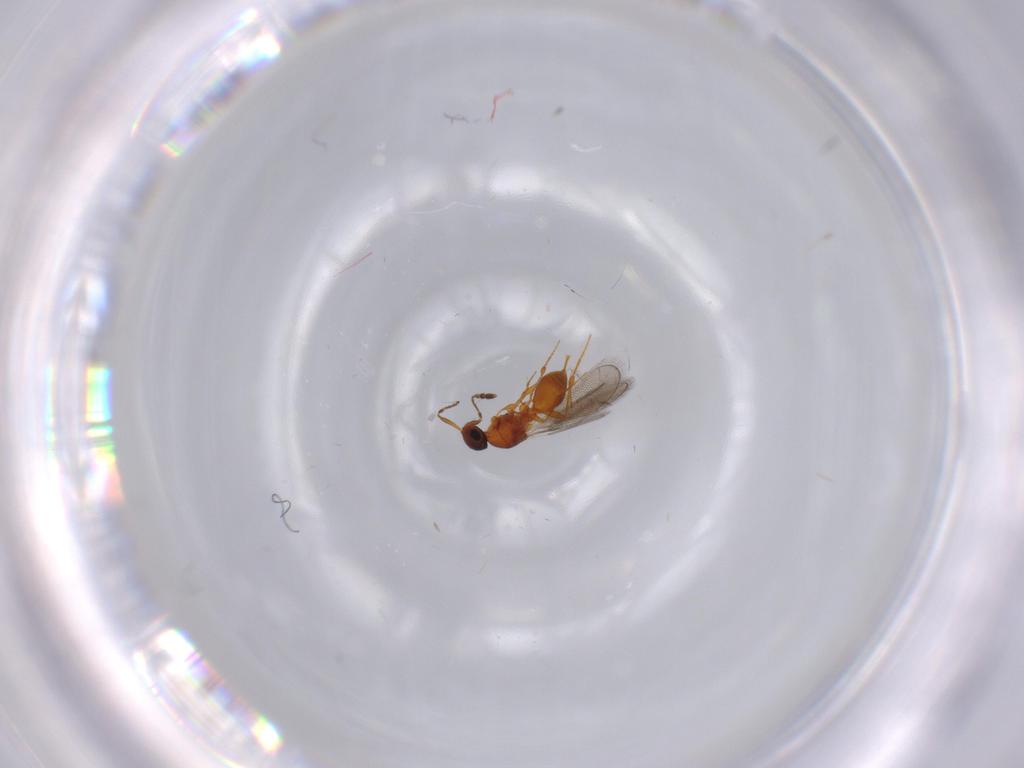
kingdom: Animalia
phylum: Arthropoda
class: Insecta
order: Hymenoptera
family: Platygastridae
